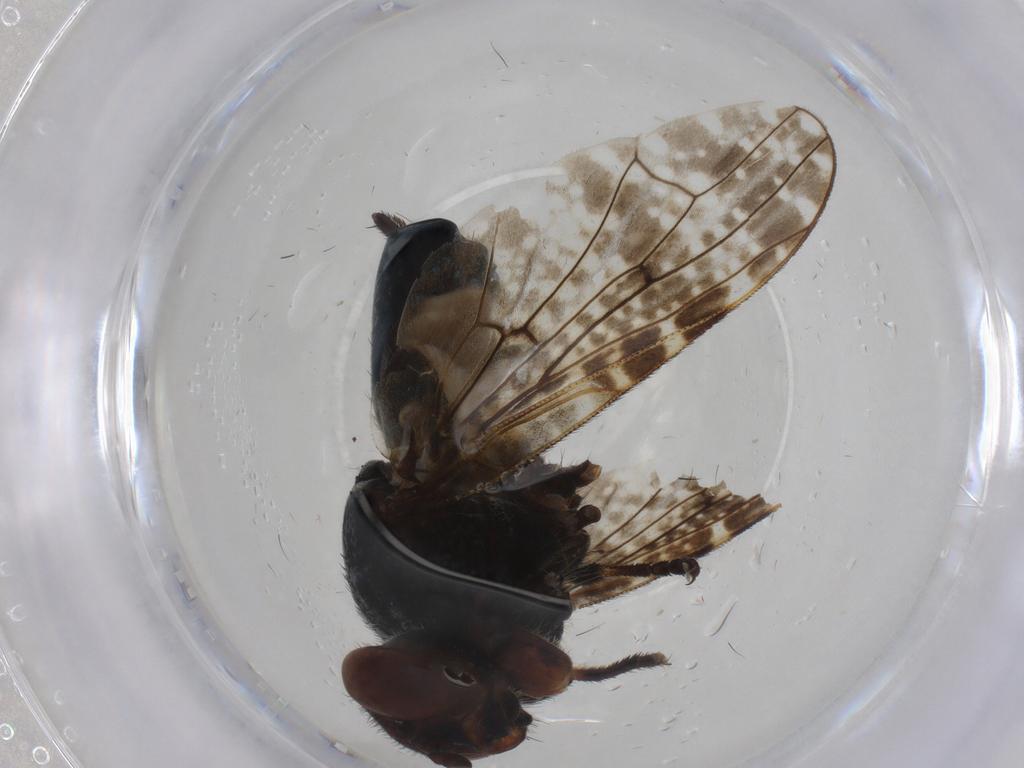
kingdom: Animalia
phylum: Arthropoda
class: Insecta
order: Diptera
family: Platystomatidae
